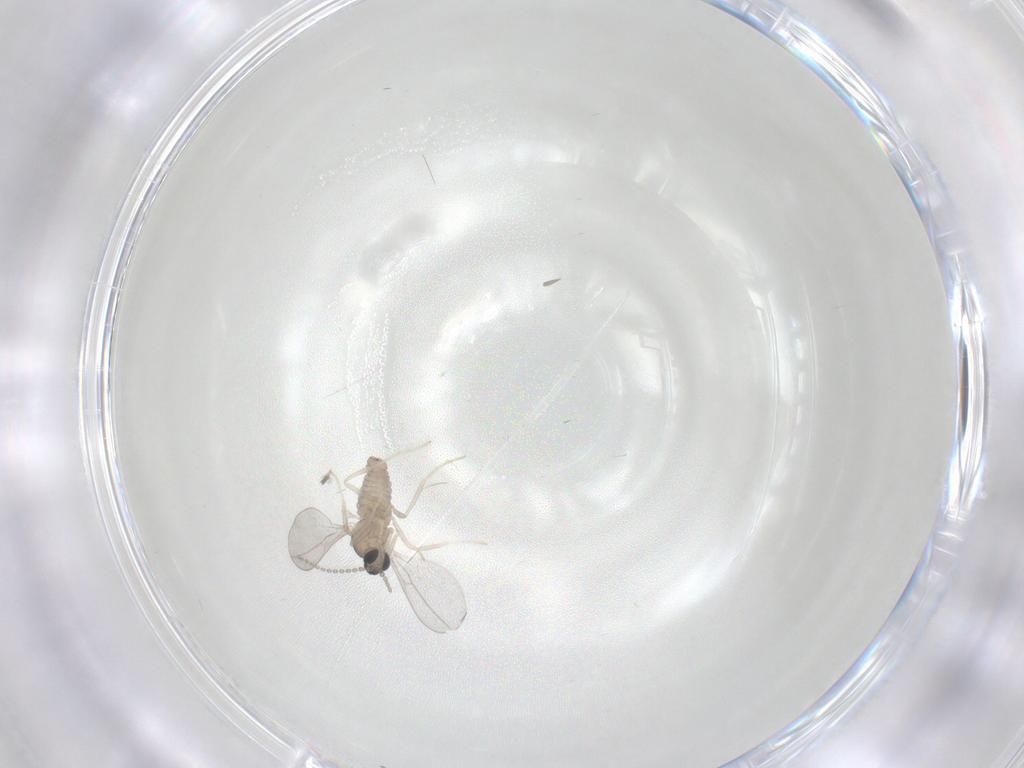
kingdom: Animalia
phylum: Arthropoda
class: Insecta
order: Diptera
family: Cecidomyiidae
